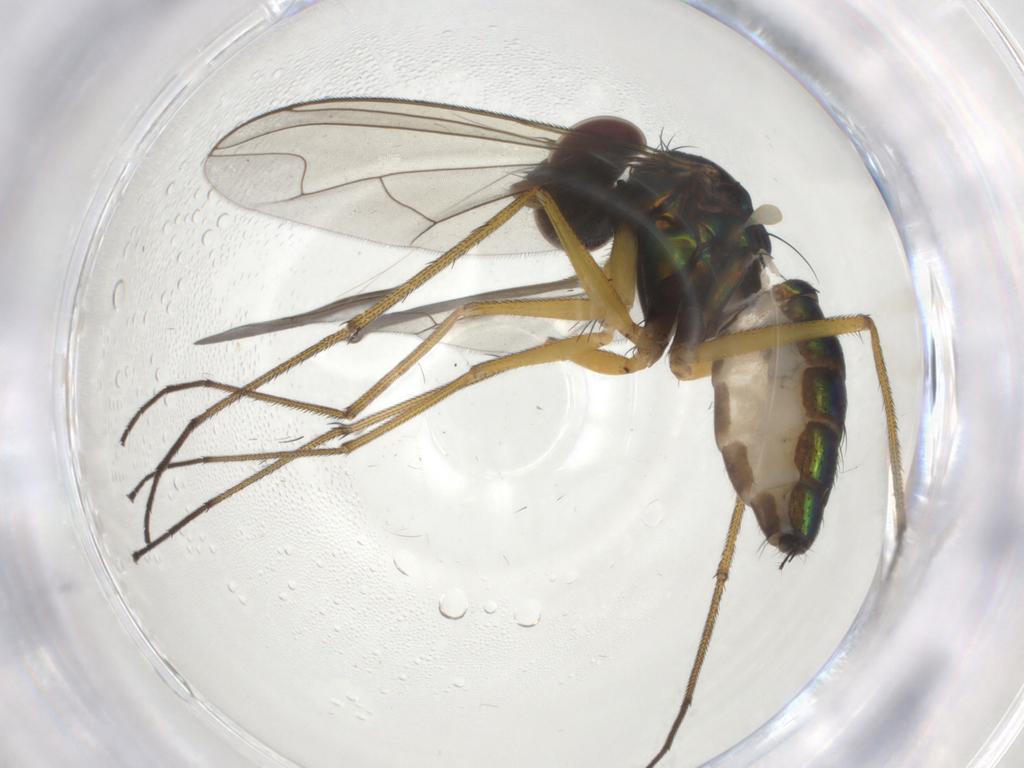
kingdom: Animalia
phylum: Arthropoda
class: Insecta
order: Diptera
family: Dolichopodidae
